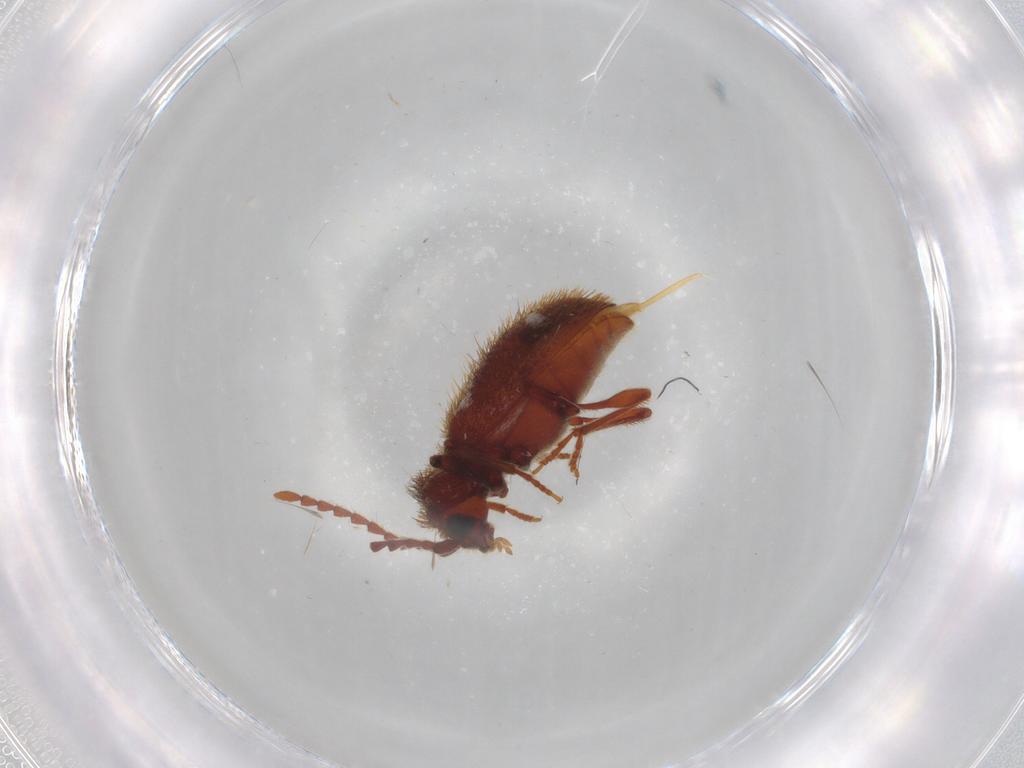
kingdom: Animalia
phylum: Arthropoda
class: Insecta
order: Coleoptera
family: Ptinidae
